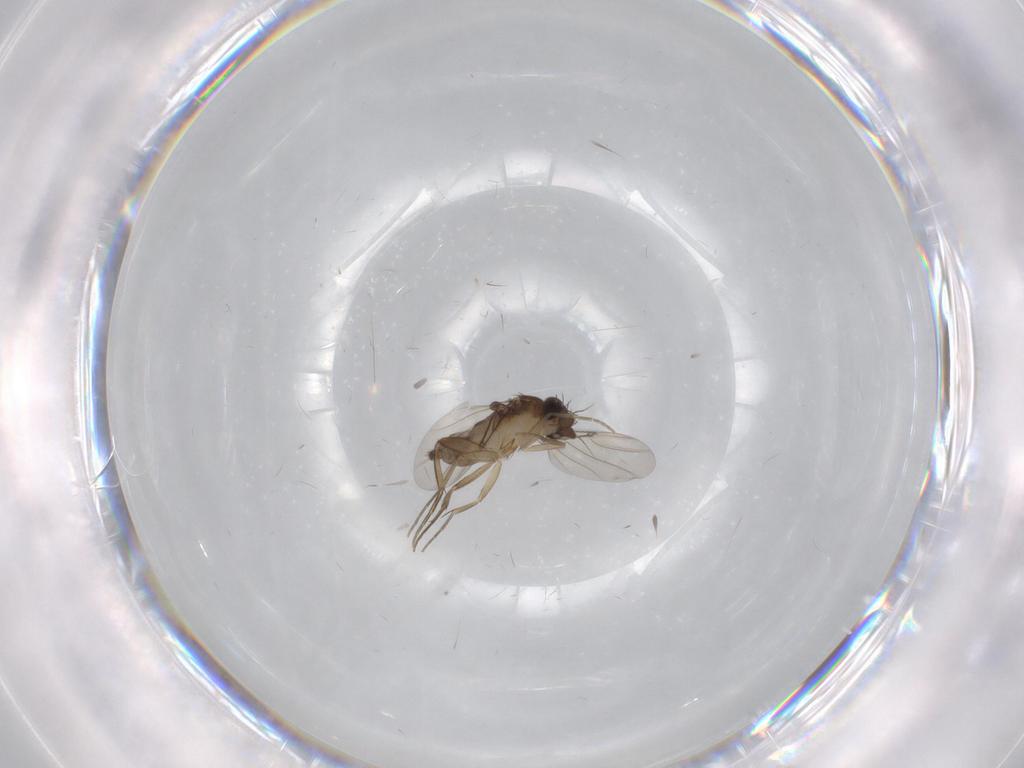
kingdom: Animalia
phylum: Arthropoda
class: Insecta
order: Diptera
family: Phoridae
